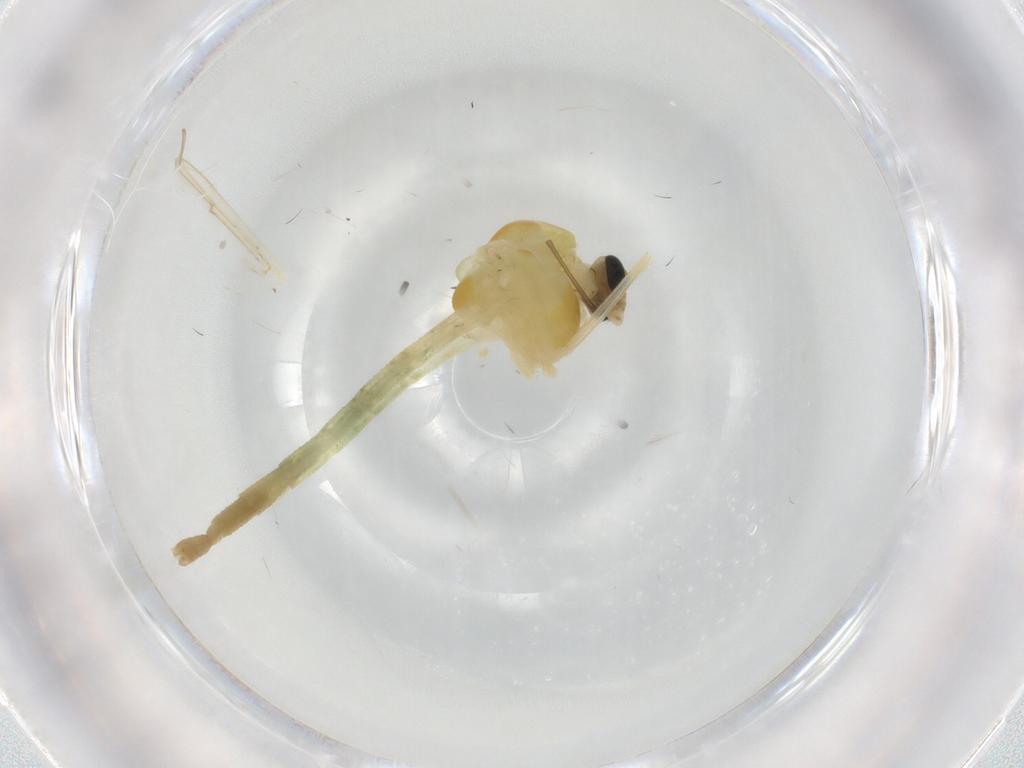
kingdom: Animalia
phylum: Arthropoda
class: Insecta
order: Diptera
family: Chironomidae
